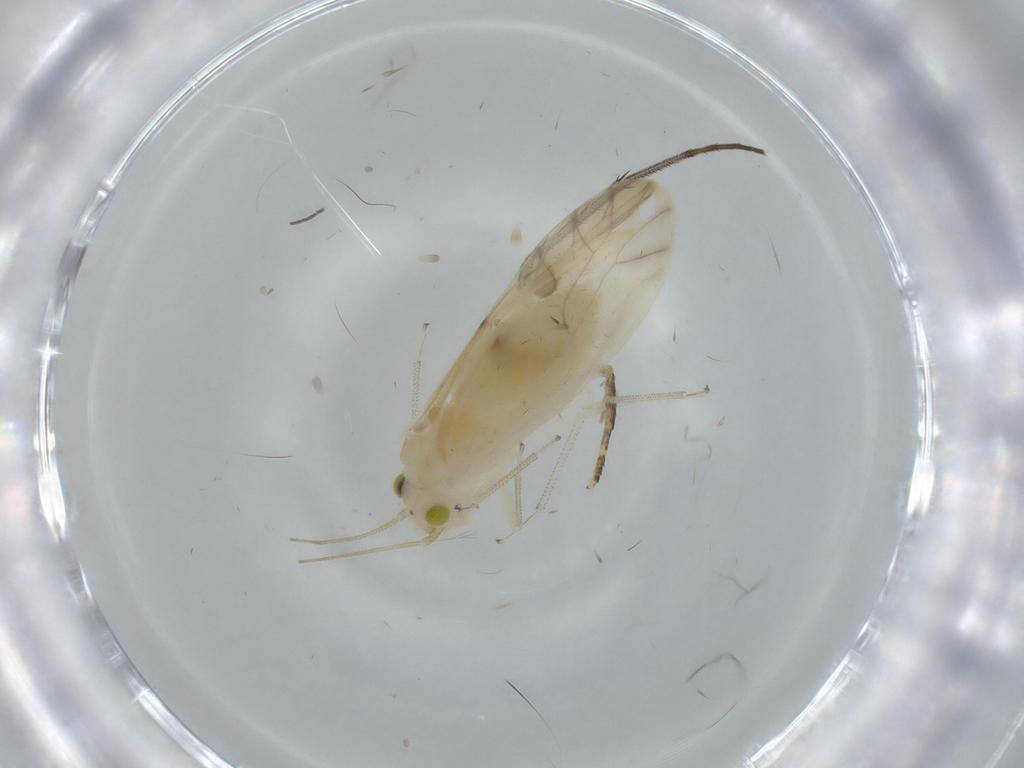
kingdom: Animalia
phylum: Arthropoda
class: Insecta
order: Psocodea
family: Caeciliusidae
